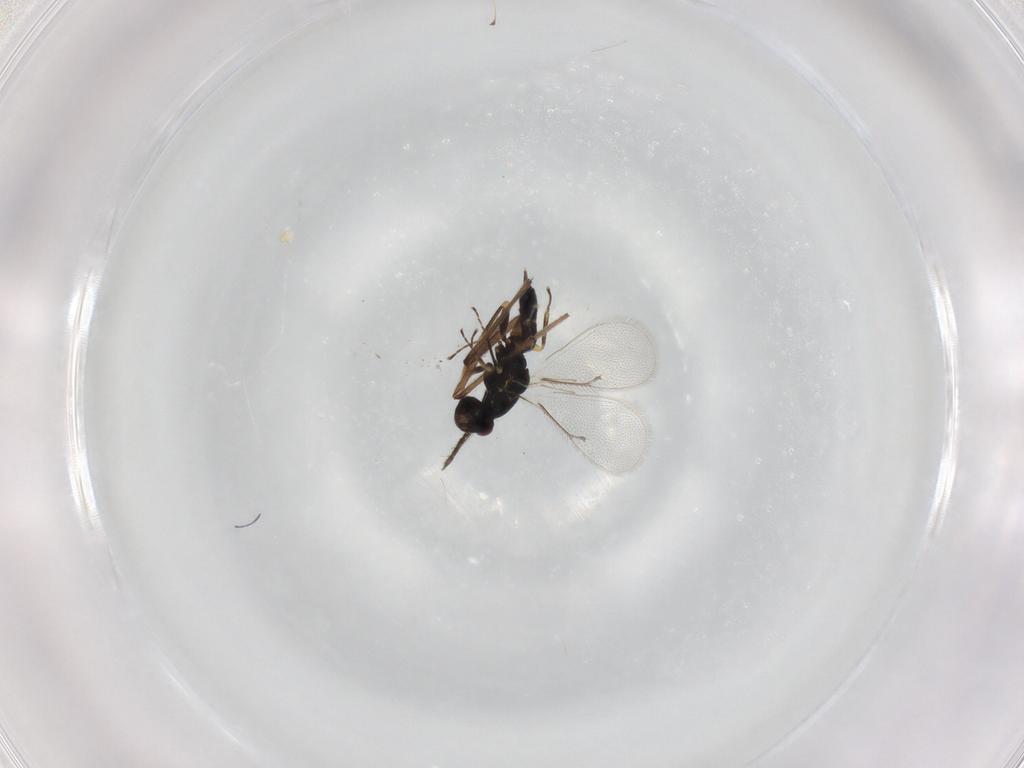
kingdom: Animalia
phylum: Arthropoda
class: Insecta
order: Hymenoptera
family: Eulophidae
